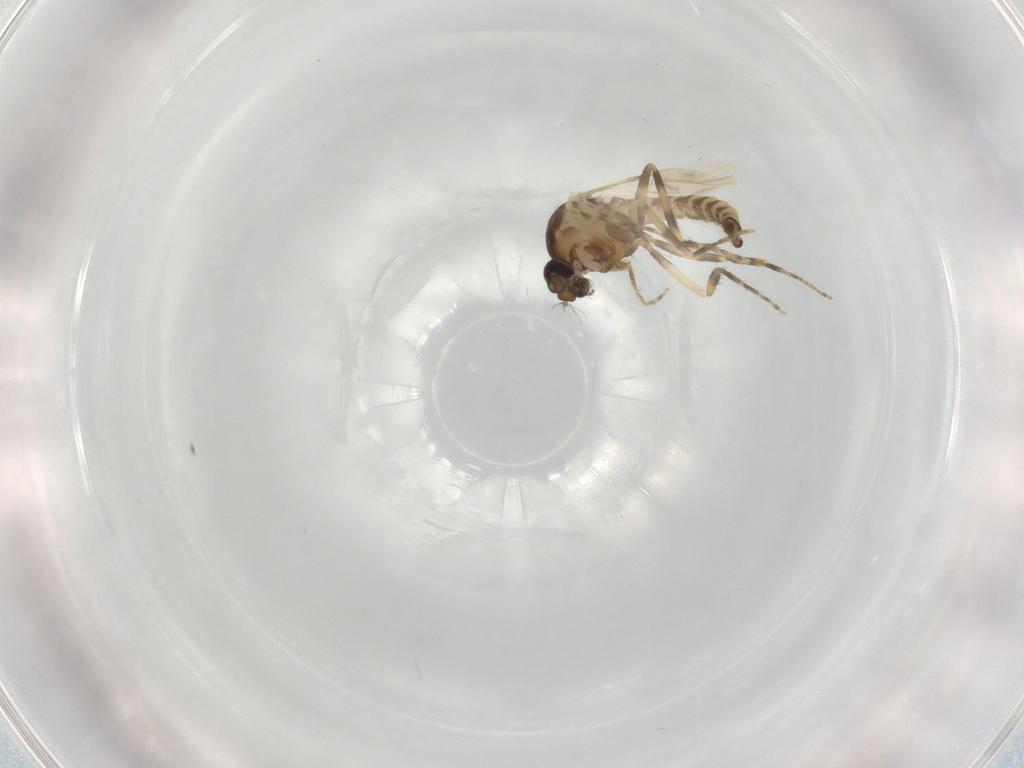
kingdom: Animalia
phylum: Arthropoda
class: Insecta
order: Diptera
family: Ceratopogonidae
